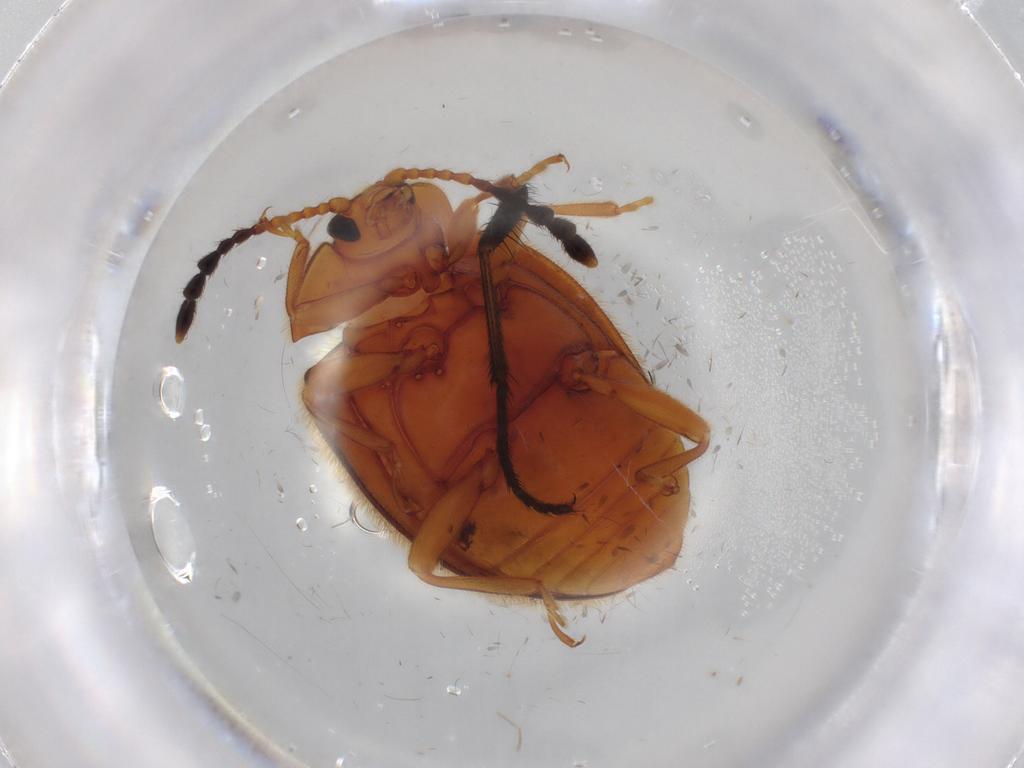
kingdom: Animalia
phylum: Arthropoda
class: Insecta
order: Coleoptera
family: Endomychidae
